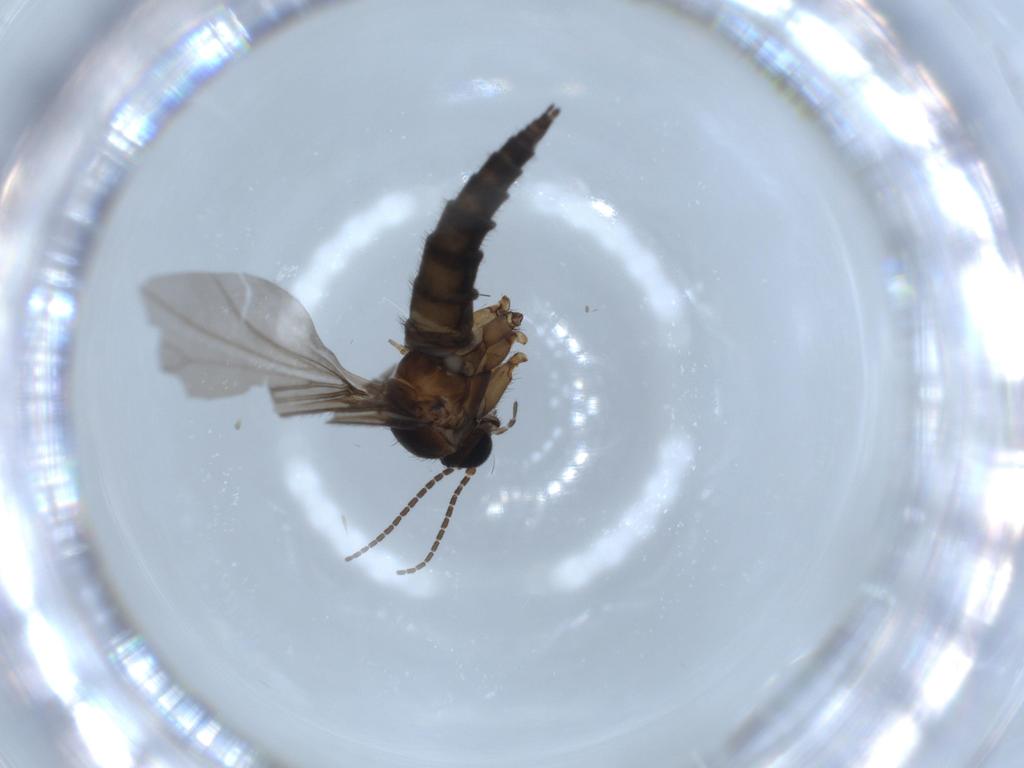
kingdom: Animalia
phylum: Arthropoda
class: Insecta
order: Diptera
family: Sciaridae
